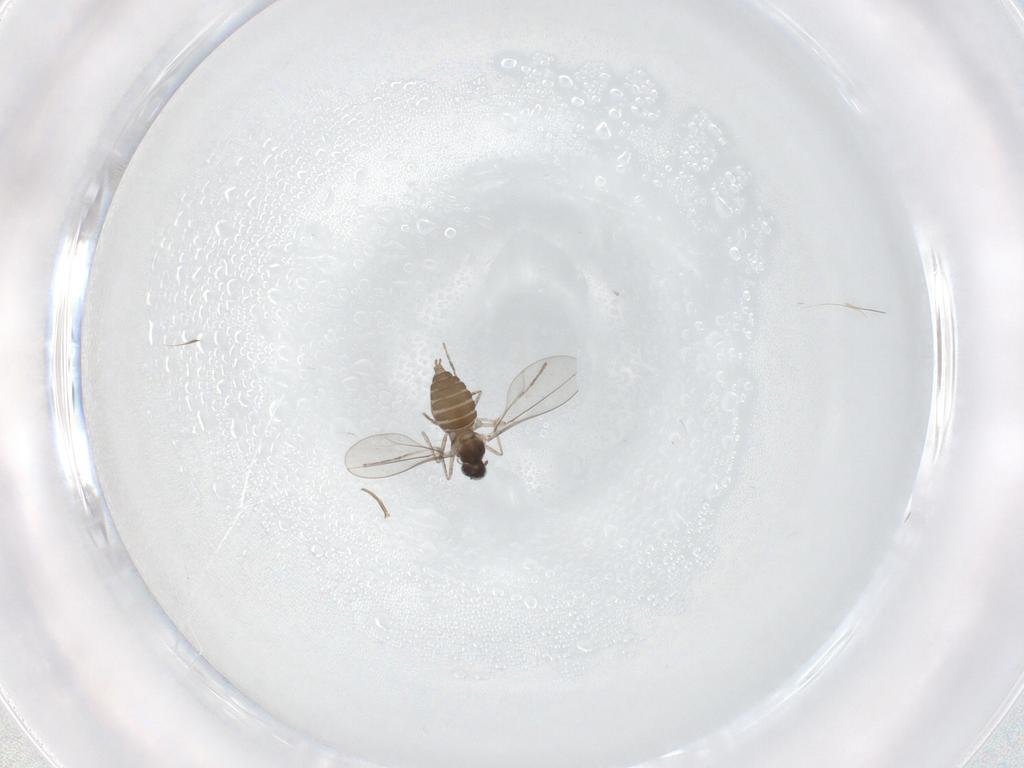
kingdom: Animalia
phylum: Arthropoda
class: Insecta
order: Diptera
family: Cecidomyiidae
